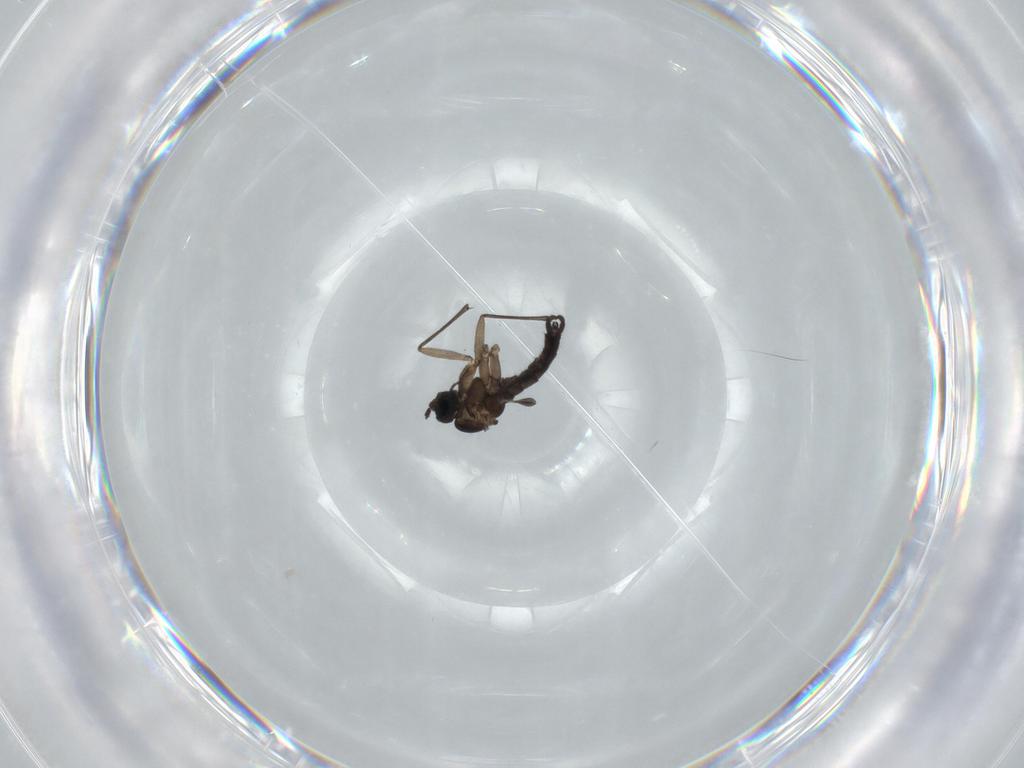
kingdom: Animalia
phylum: Arthropoda
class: Insecta
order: Diptera
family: Sciaridae
